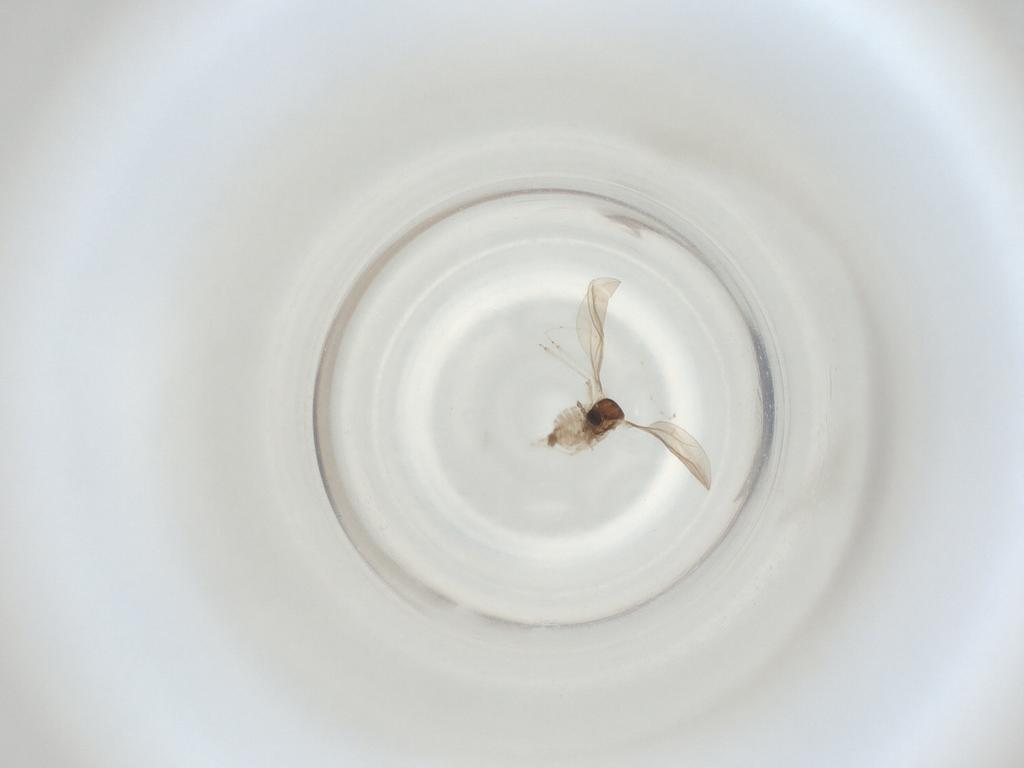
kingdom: Animalia
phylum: Arthropoda
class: Insecta
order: Diptera
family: Cecidomyiidae
